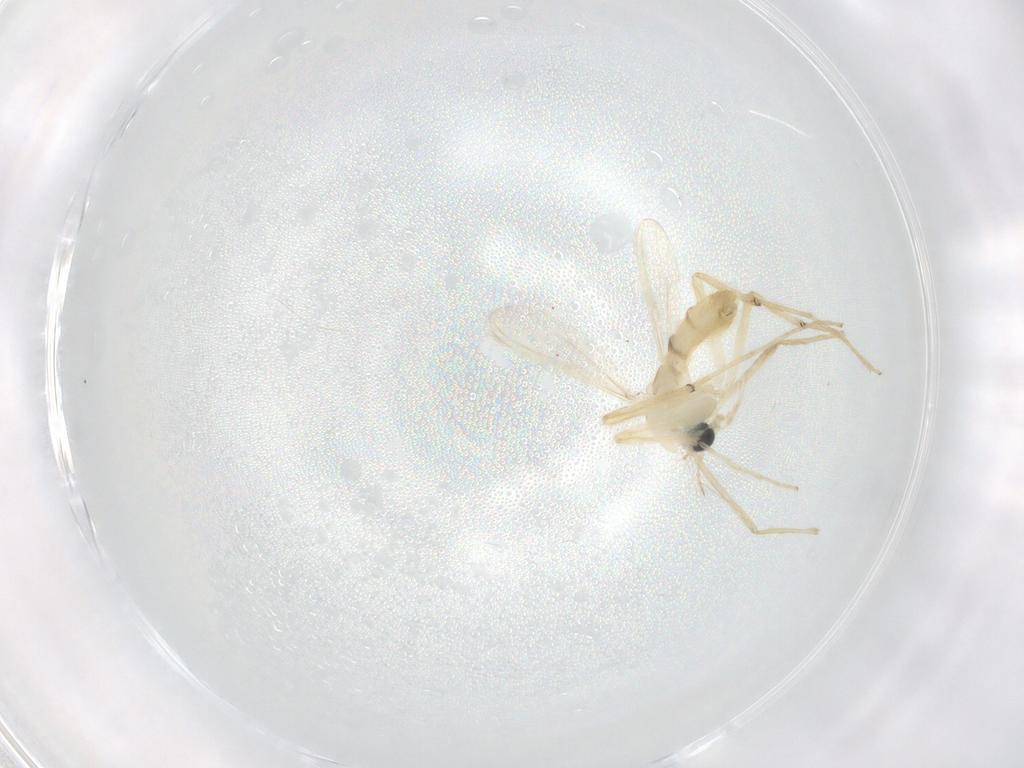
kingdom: Animalia
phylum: Arthropoda
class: Insecta
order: Diptera
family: Chironomidae
